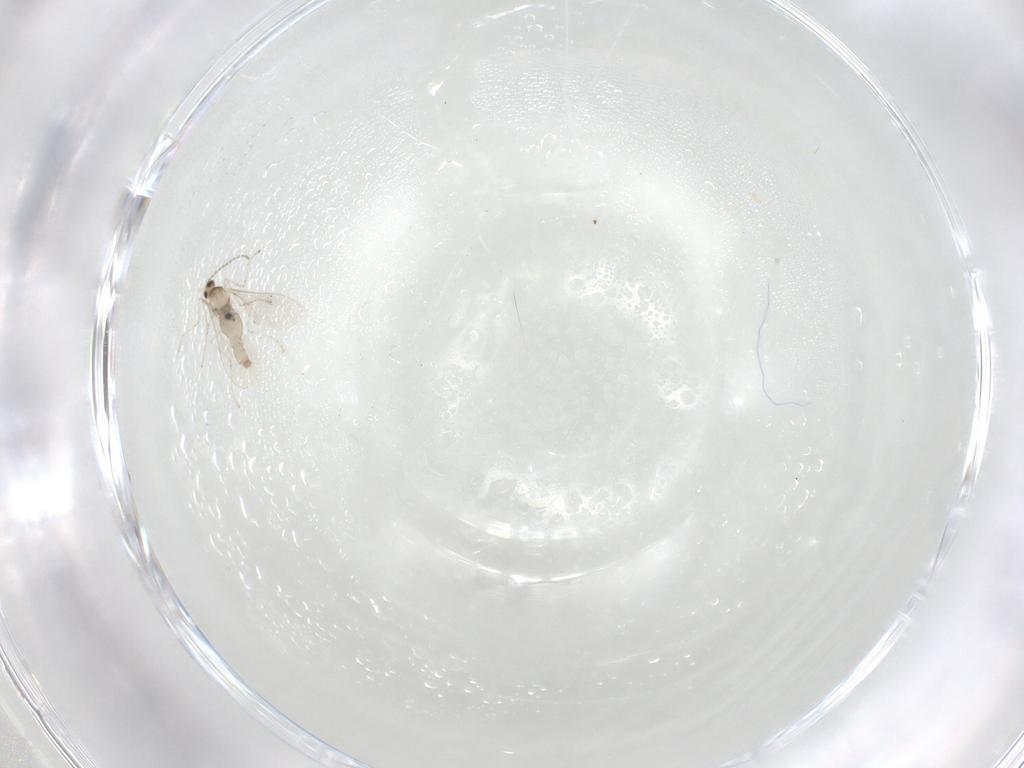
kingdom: Animalia
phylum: Arthropoda
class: Insecta
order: Diptera
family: Cecidomyiidae
